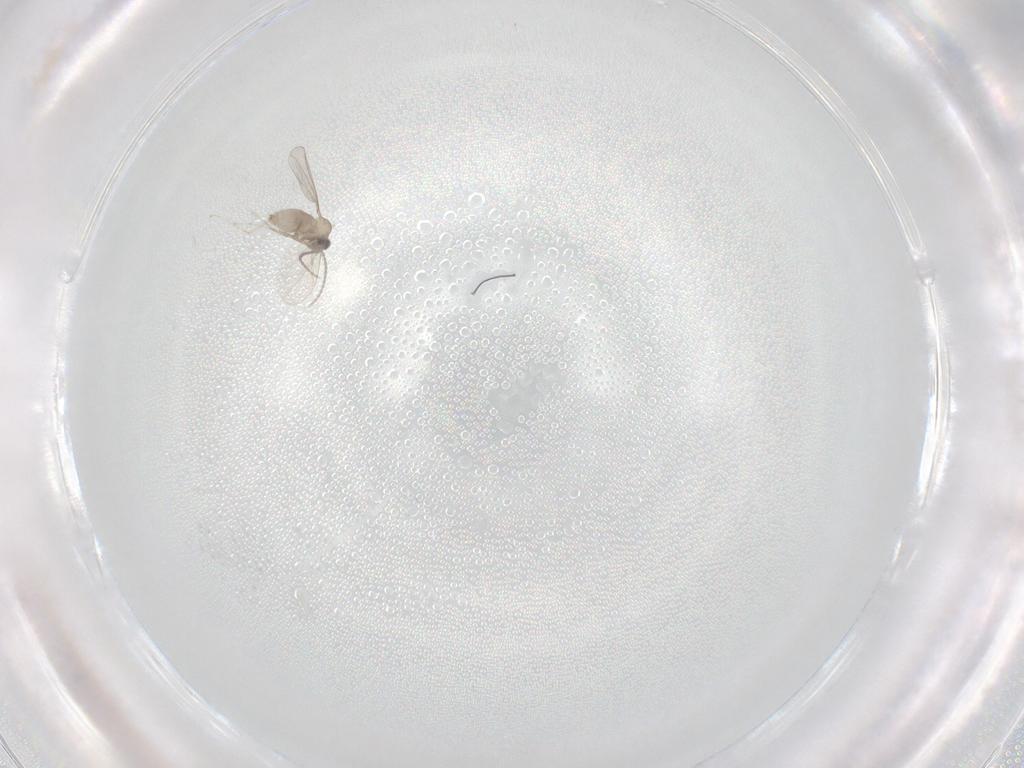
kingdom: Animalia
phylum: Arthropoda
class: Insecta
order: Diptera
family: Cecidomyiidae
